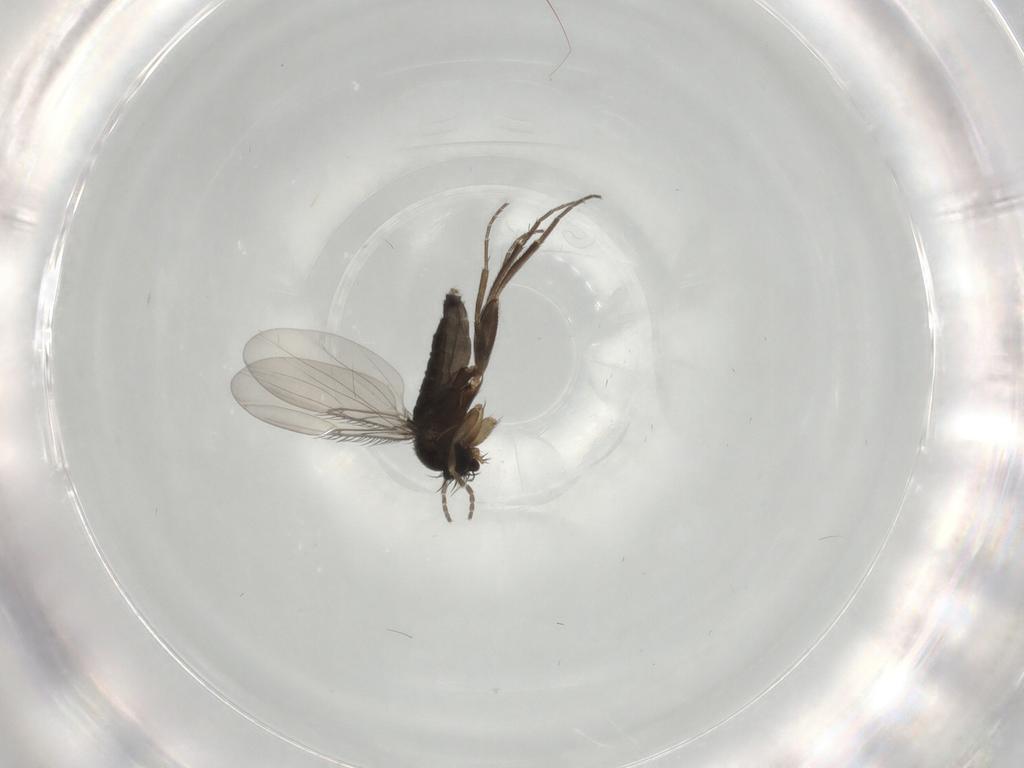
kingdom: Animalia
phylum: Arthropoda
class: Insecta
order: Diptera
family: Phoridae
